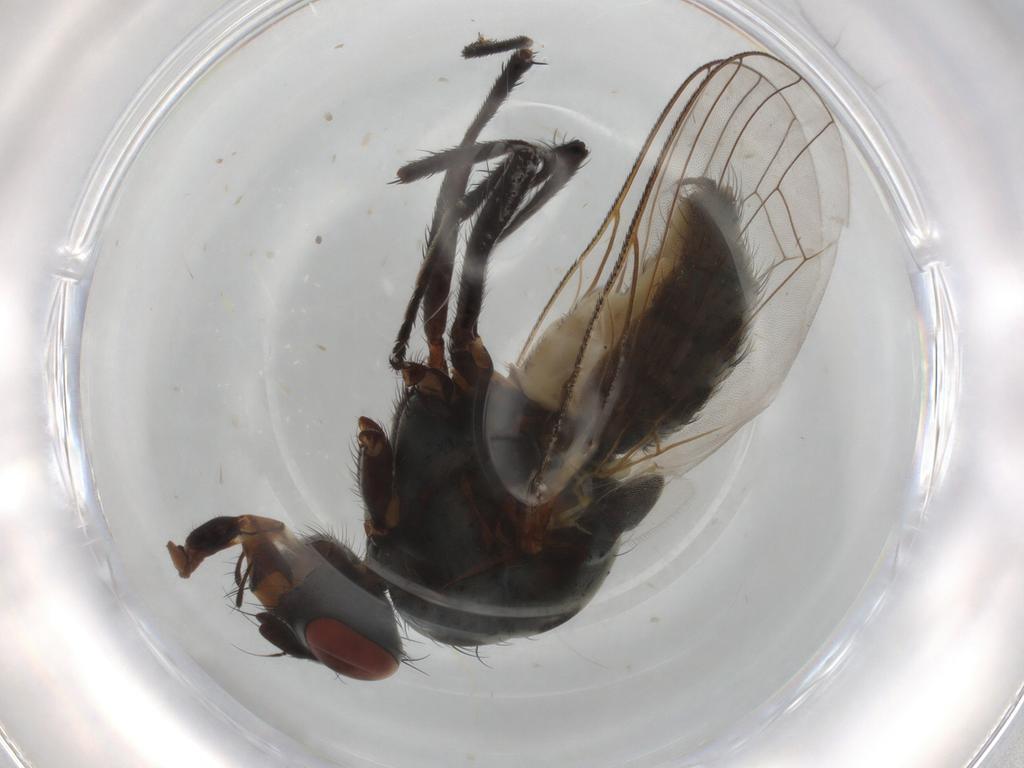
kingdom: Animalia
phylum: Arthropoda
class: Insecta
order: Diptera
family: Anthomyiidae
